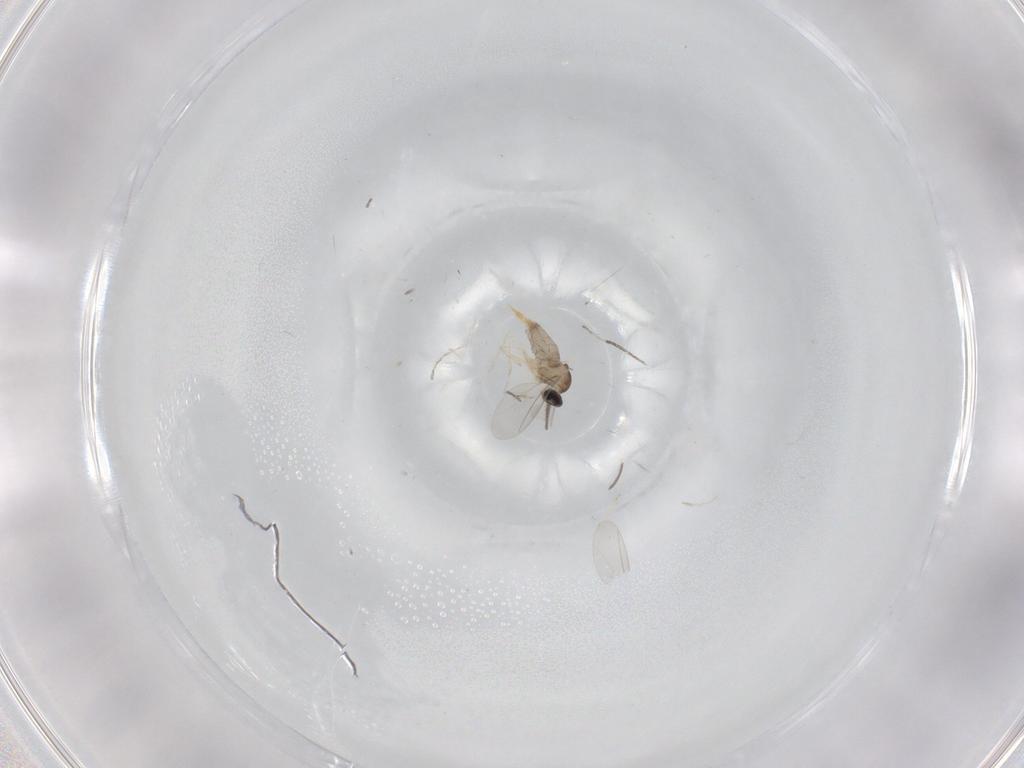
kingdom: Animalia
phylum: Arthropoda
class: Insecta
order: Diptera
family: Cecidomyiidae
